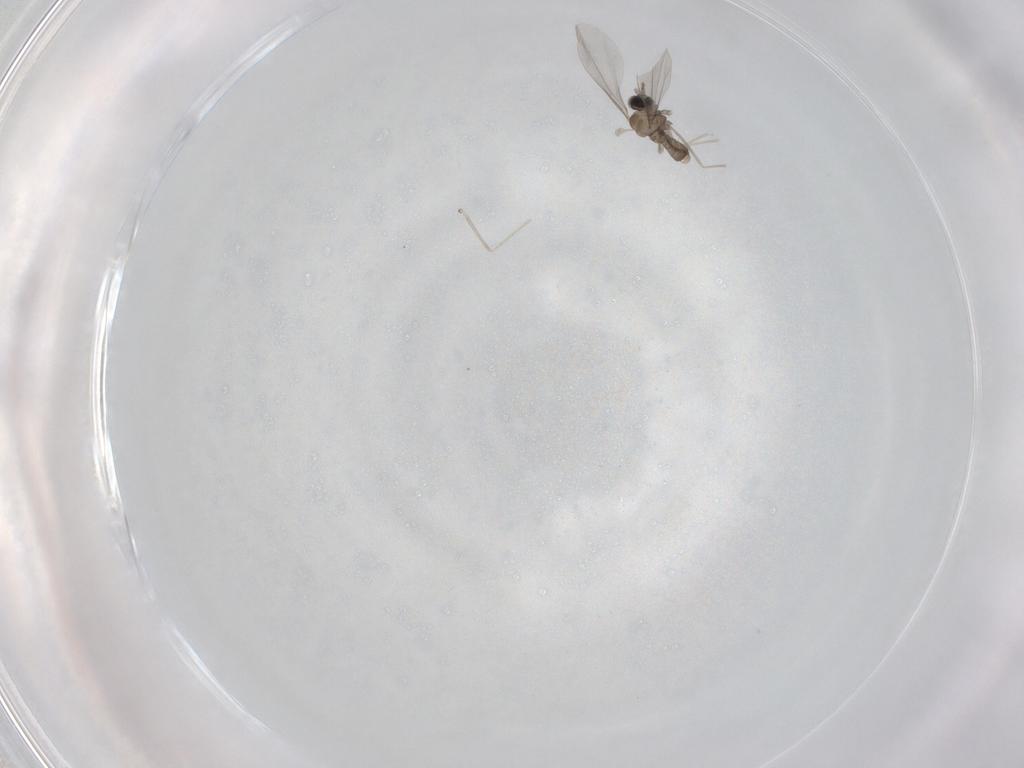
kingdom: Animalia
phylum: Arthropoda
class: Insecta
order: Diptera
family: Cecidomyiidae
